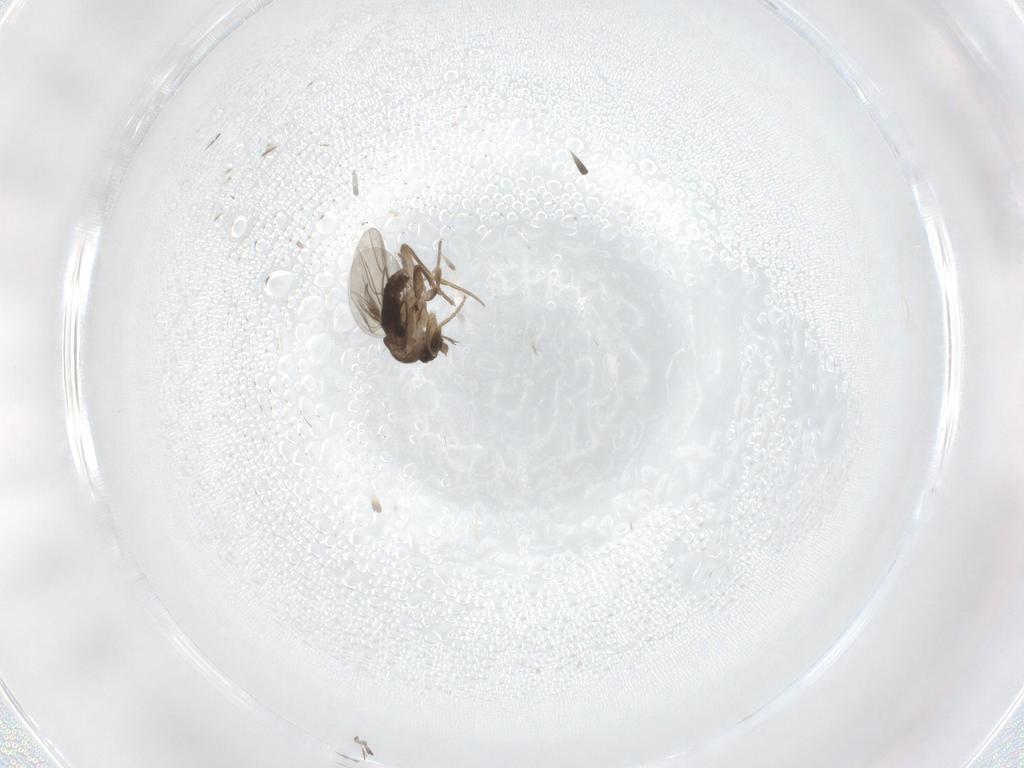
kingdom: Animalia
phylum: Arthropoda
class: Insecta
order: Diptera
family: Phoridae
